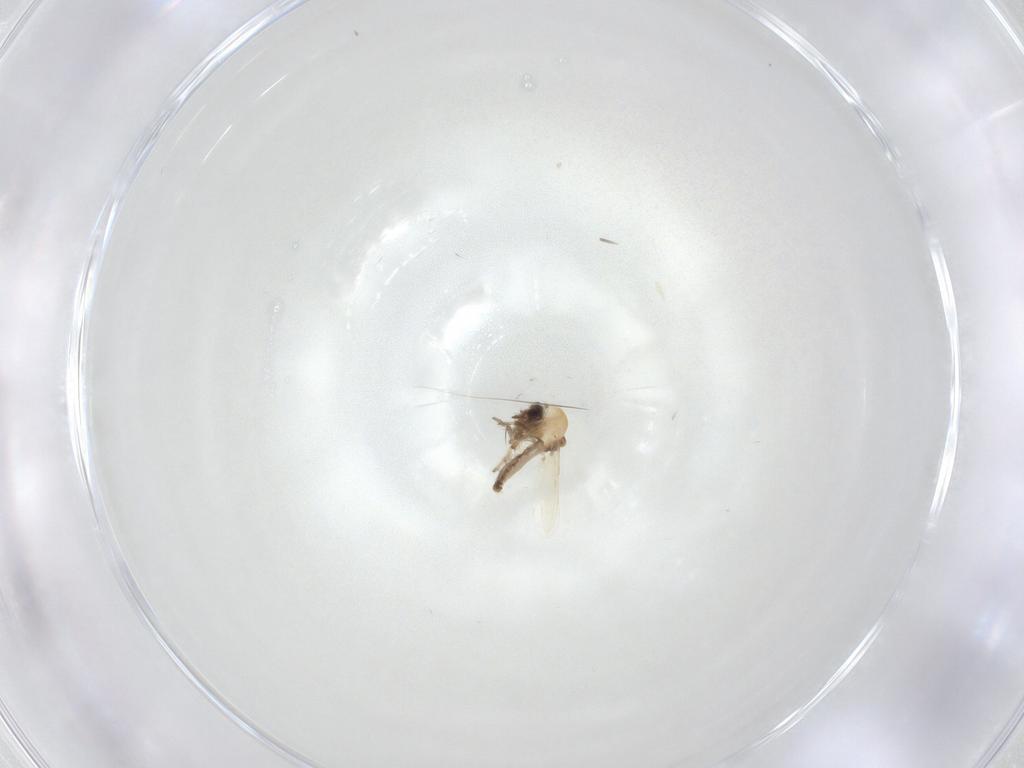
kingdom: Animalia
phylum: Arthropoda
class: Insecta
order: Diptera
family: Ceratopogonidae
